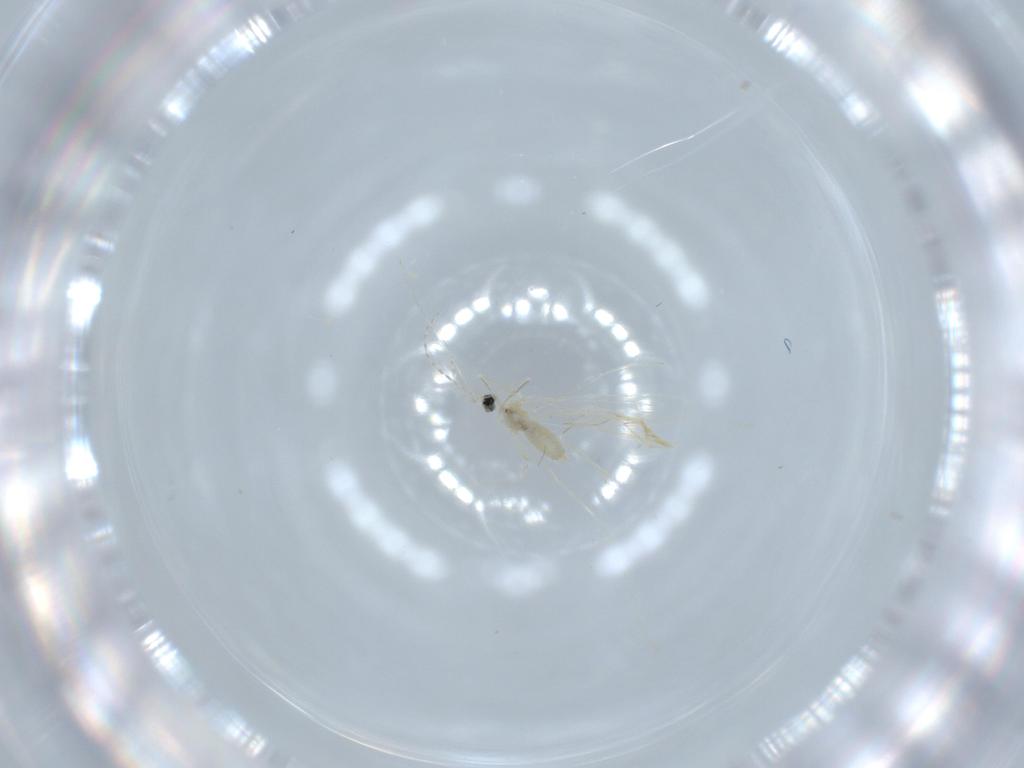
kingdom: Animalia
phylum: Arthropoda
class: Insecta
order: Diptera
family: Cecidomyiidae
